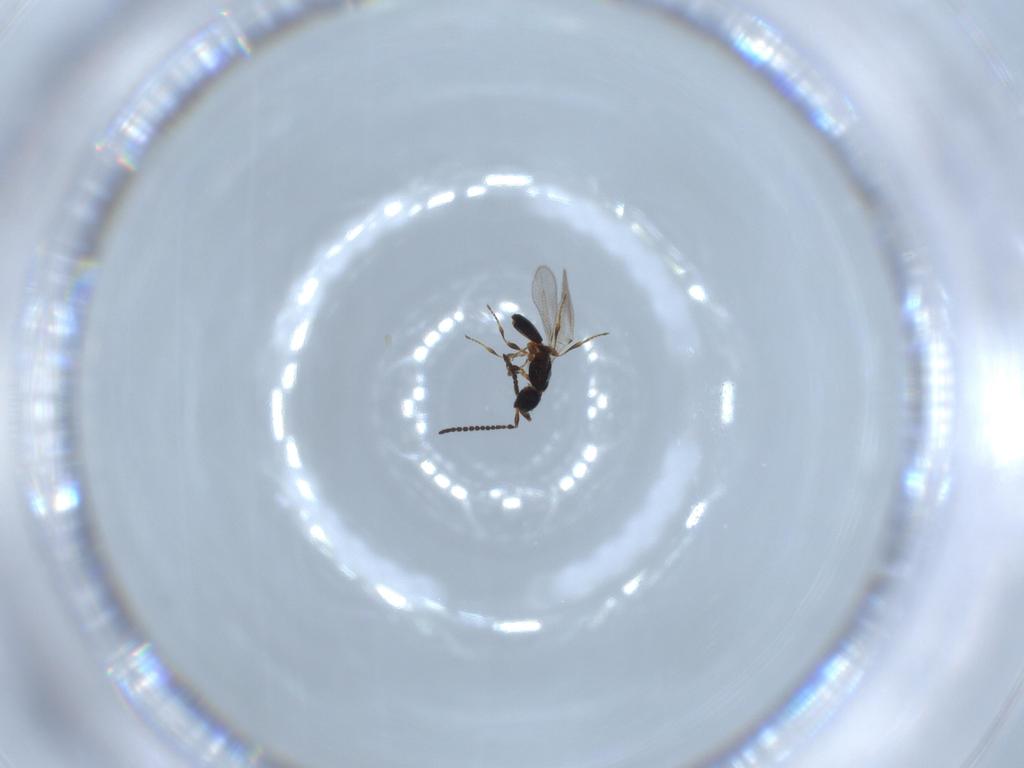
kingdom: Animalia
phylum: Arthropoda
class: Insecta
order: Hymenoptera
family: Diapriidae
